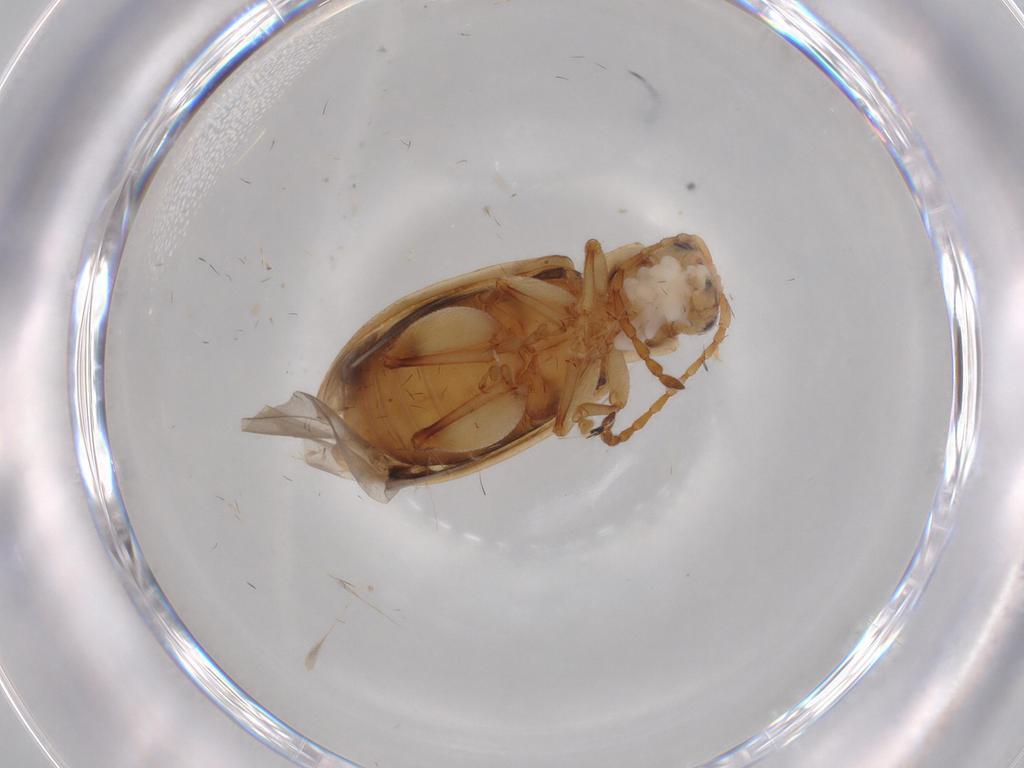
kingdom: Animalia
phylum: Arthropoda
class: Insecta
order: Coleoptera
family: Chrysomelidae
